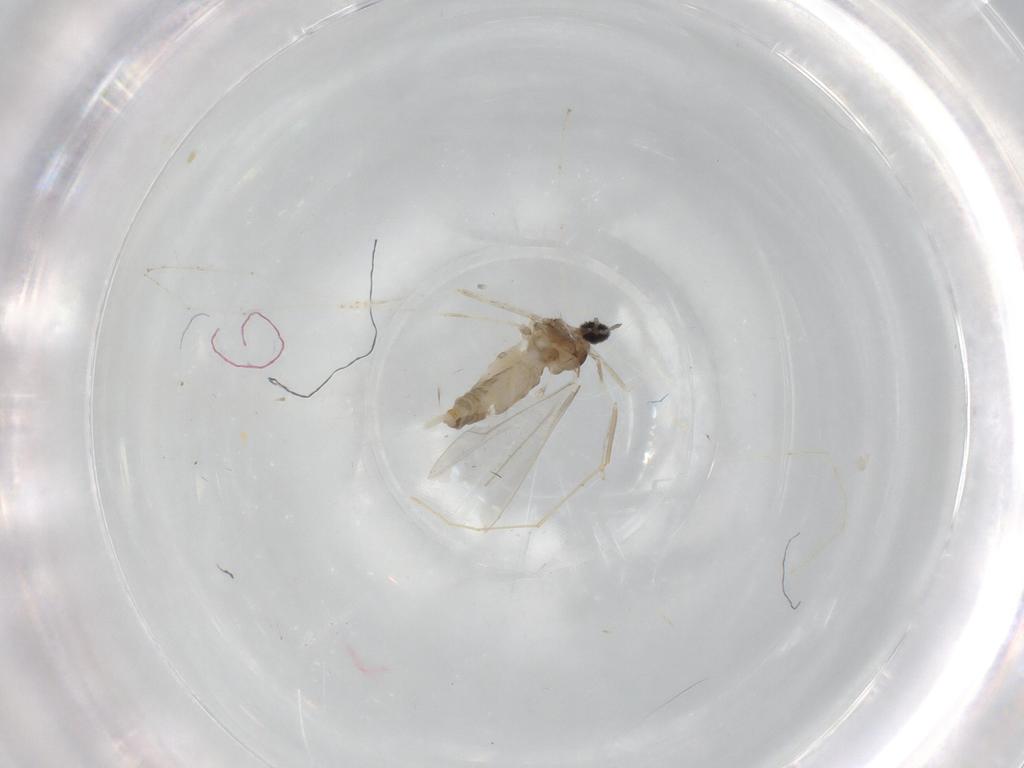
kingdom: Animalia
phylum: Arthropoda
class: Insecta
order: Diptera
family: Cecidomyiidae
